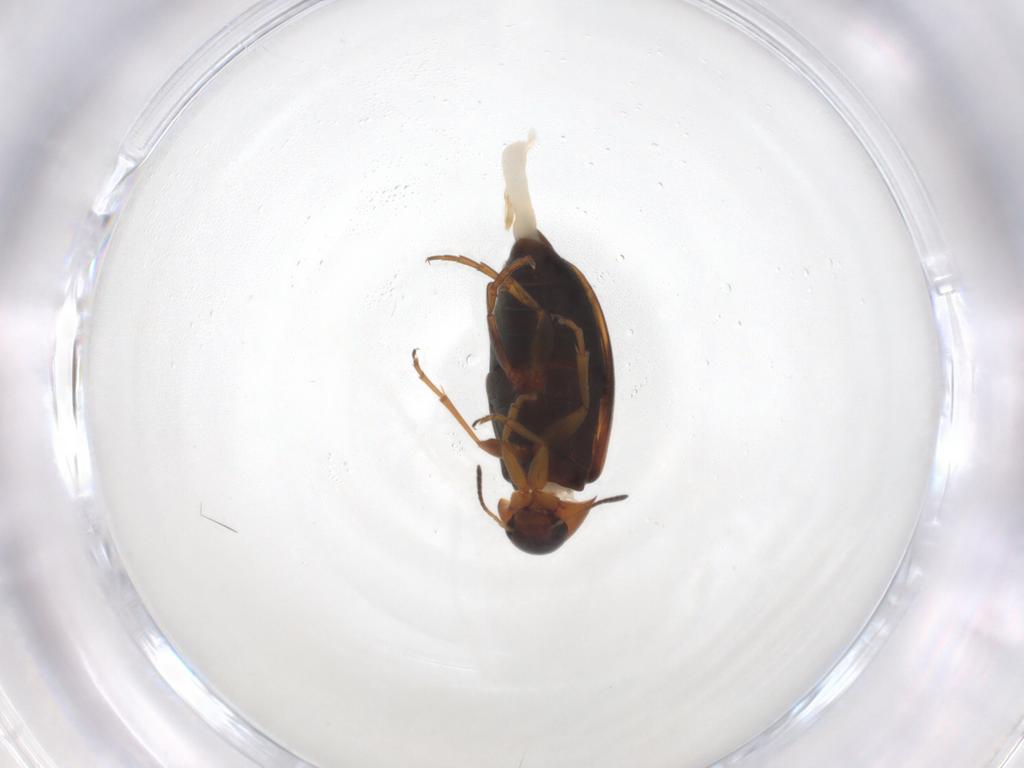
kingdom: Animalia
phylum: Arthropoda
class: Insecta
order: Coleoptera
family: Scraptiidae
